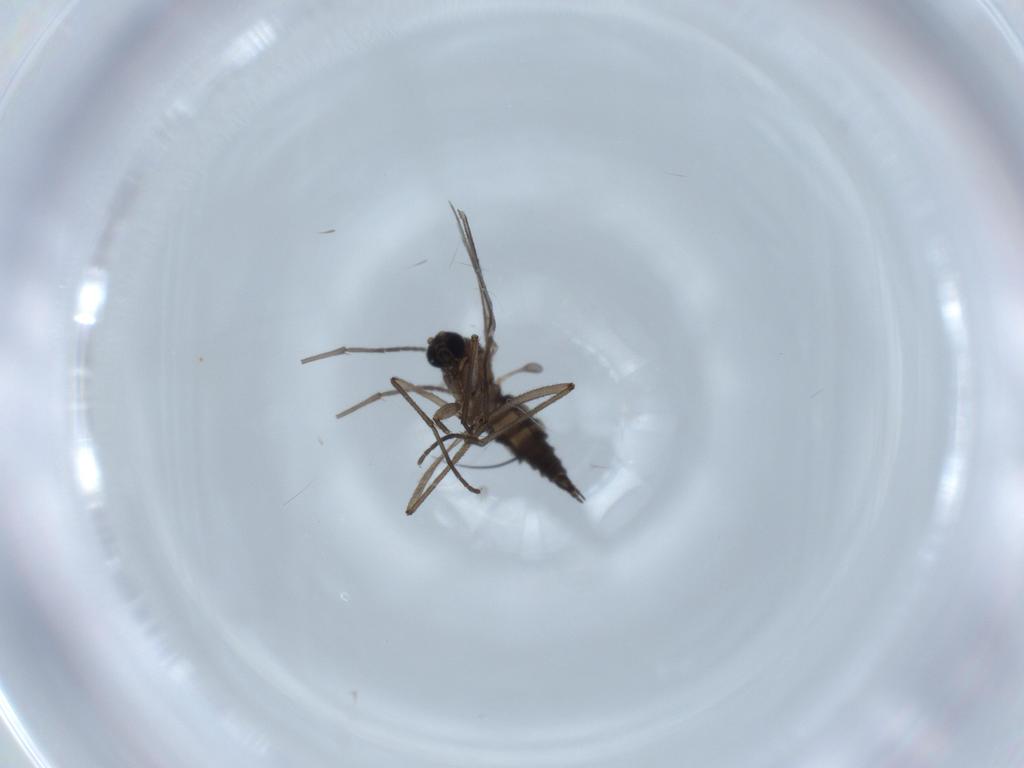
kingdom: Animalia
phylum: Arthropoda
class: Insecta
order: Diptera
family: Sciaridae
